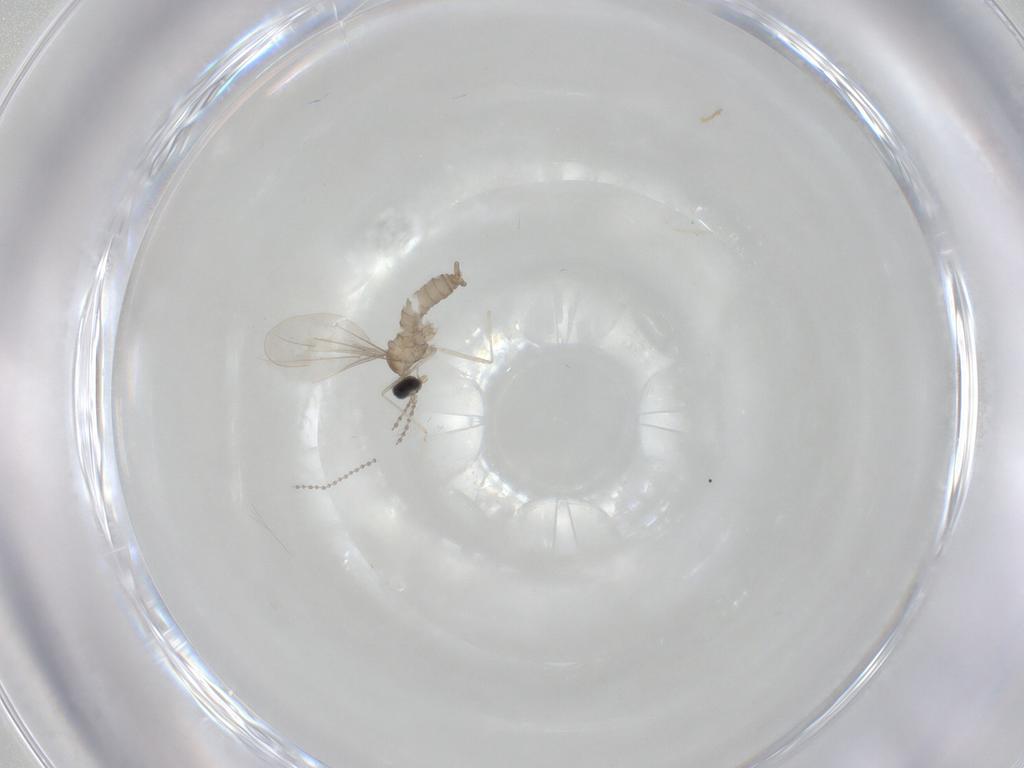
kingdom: Animalia
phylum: Arthropoda
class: Insecta
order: Diptera
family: Cecidomyiidae
